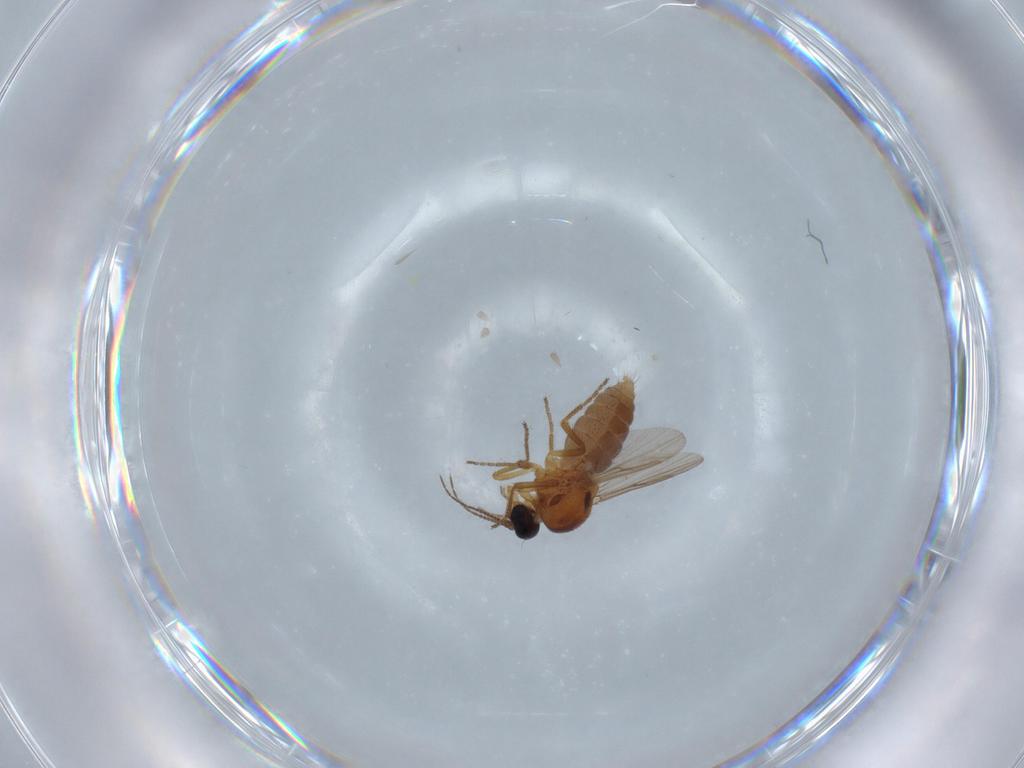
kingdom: Animalia
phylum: Arthropoda
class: Insecta
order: Diptera
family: Ceratopogonidae
